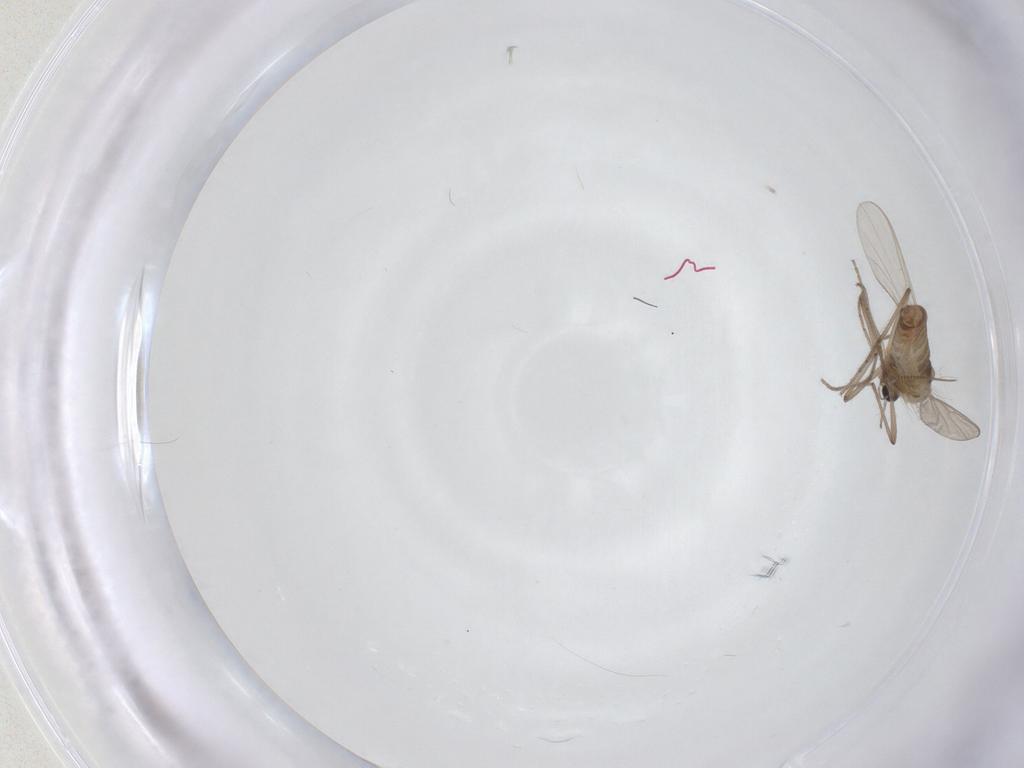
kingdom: Animalia
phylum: Arthropoda
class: Insecta
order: Diptera
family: Chironomidae
